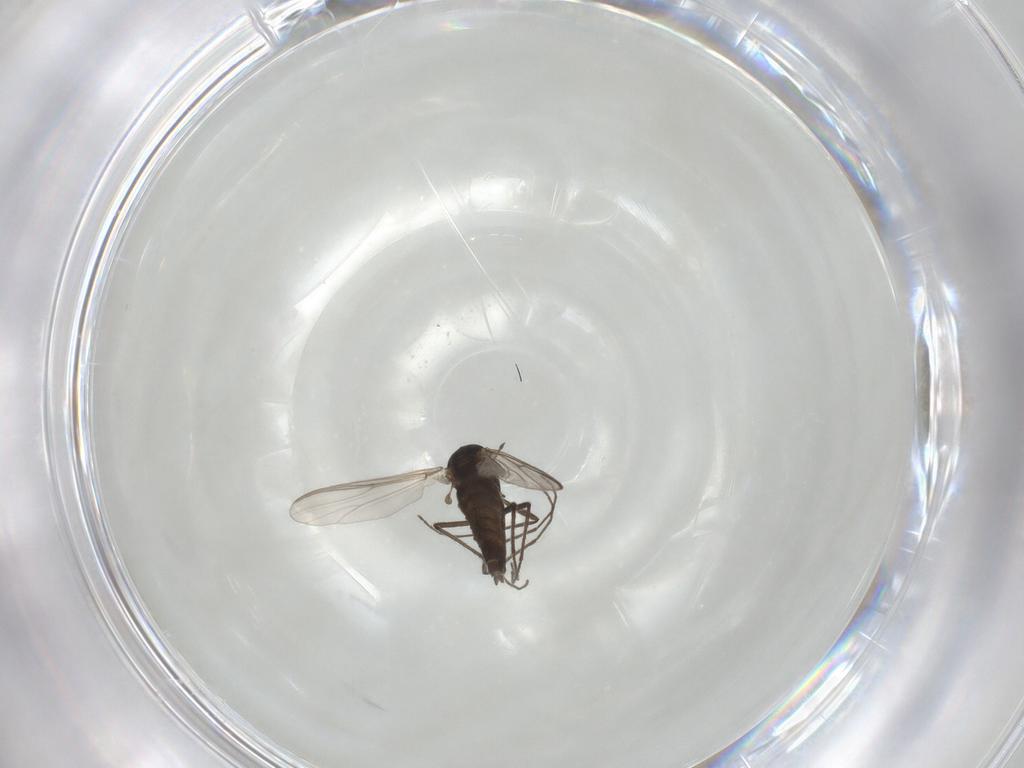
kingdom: Animalia
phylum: Arthropoda
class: Insecta
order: Diptera
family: Chironomidae
